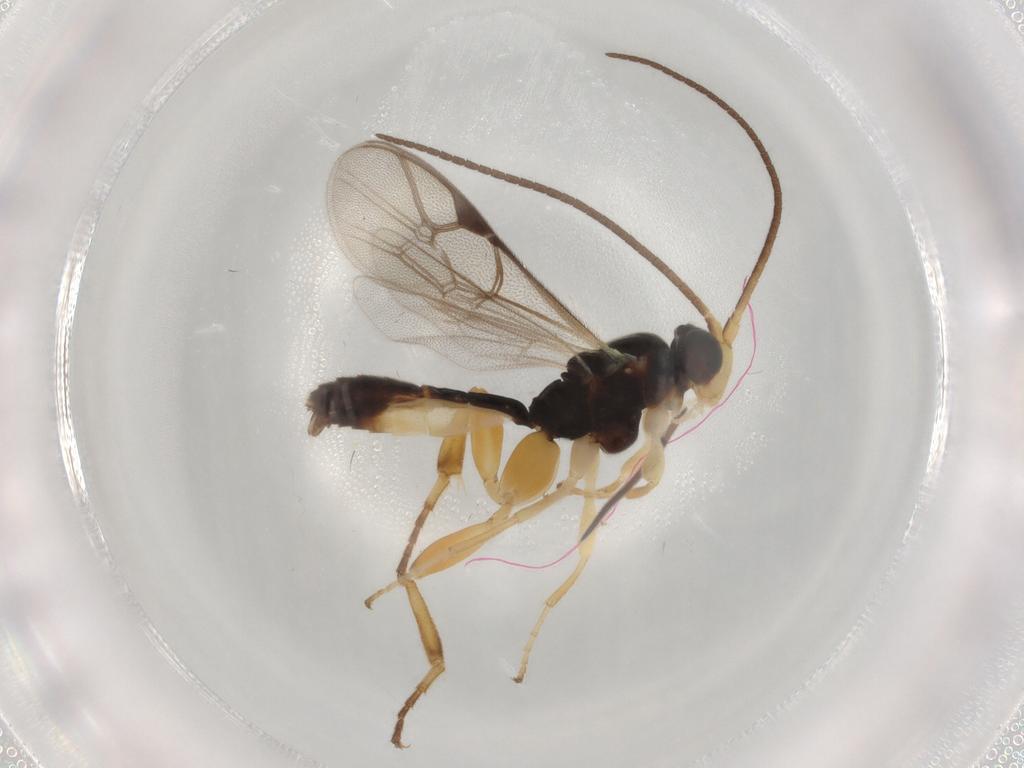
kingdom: Animalia
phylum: Arthropoda
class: Insecta
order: Hymenoptera
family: Ichneumonidae
